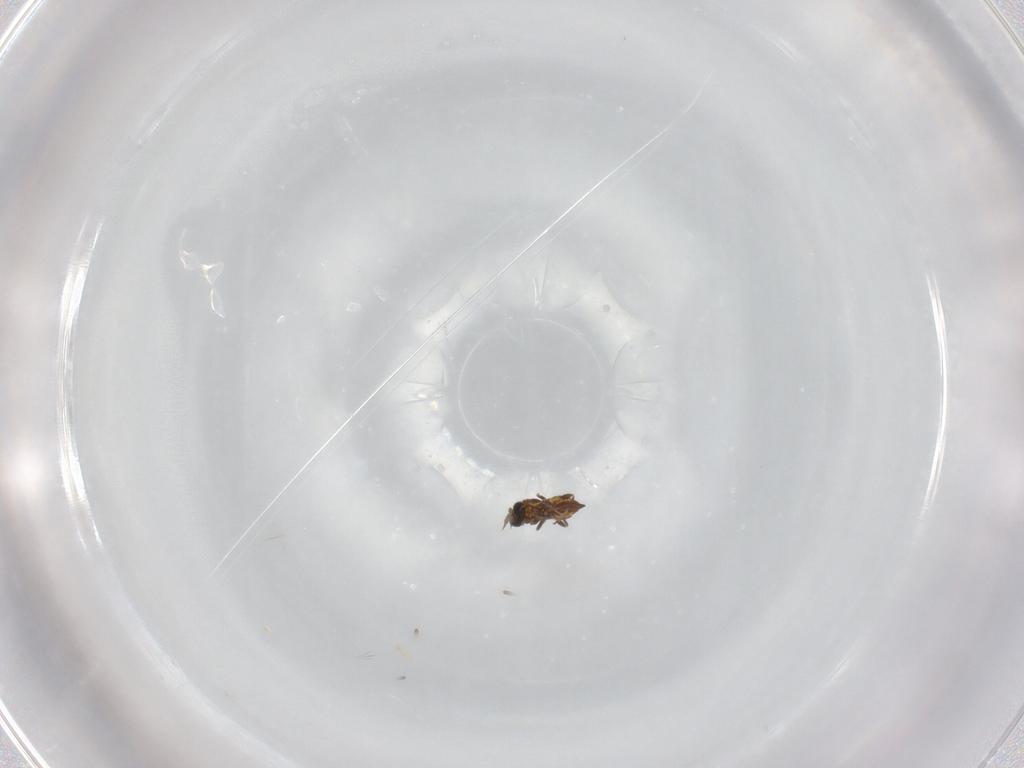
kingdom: Animalia
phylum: Arthropoda
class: Insecta
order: Hymenoptera
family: Trichogrammatidae
